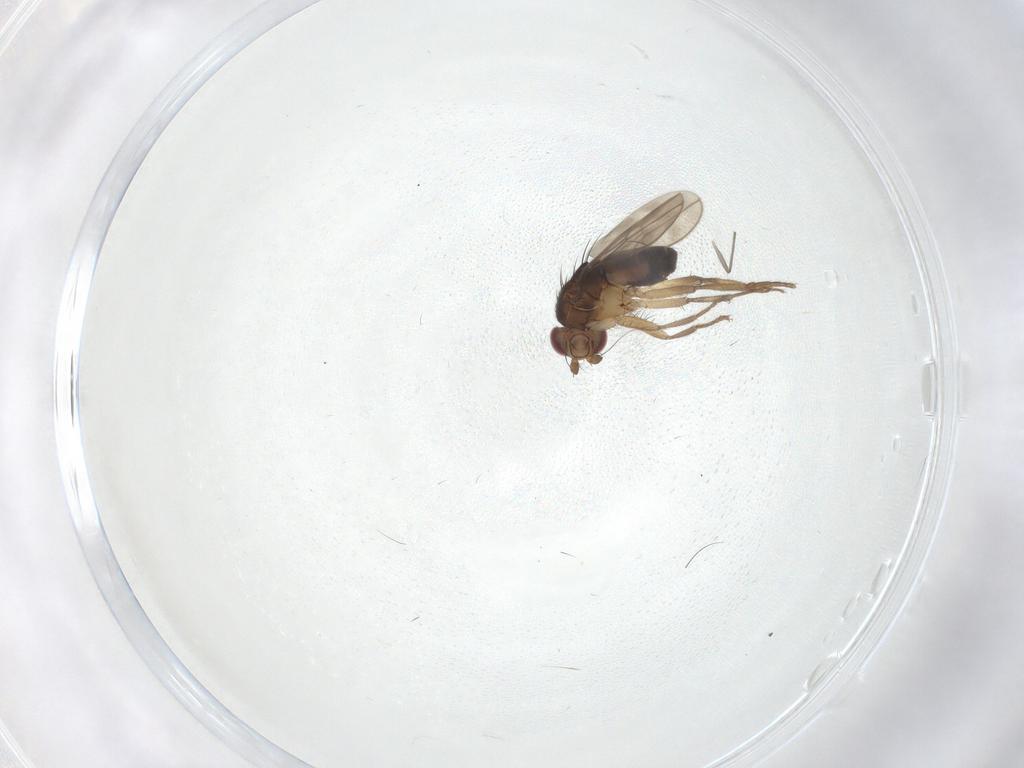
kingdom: Animalia
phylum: Arthropoda
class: Insecta
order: Diptera
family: Sphaeroceridae
